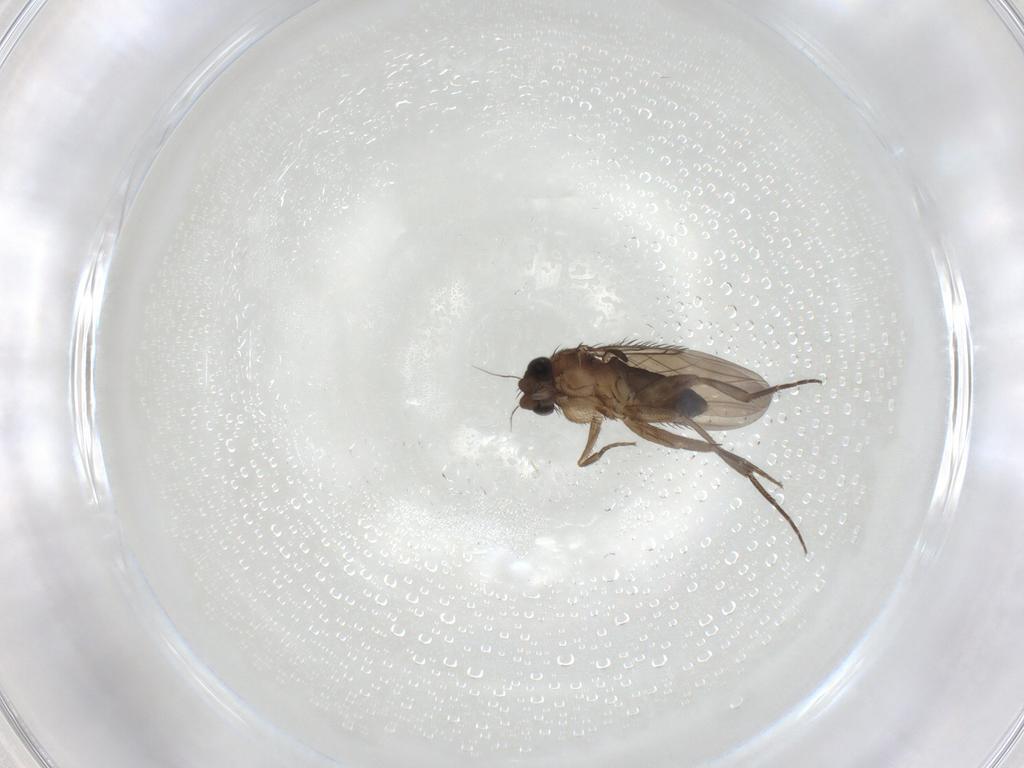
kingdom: Animalia
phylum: Arthropoda
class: Insecta
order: Diptera
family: Phoridae
